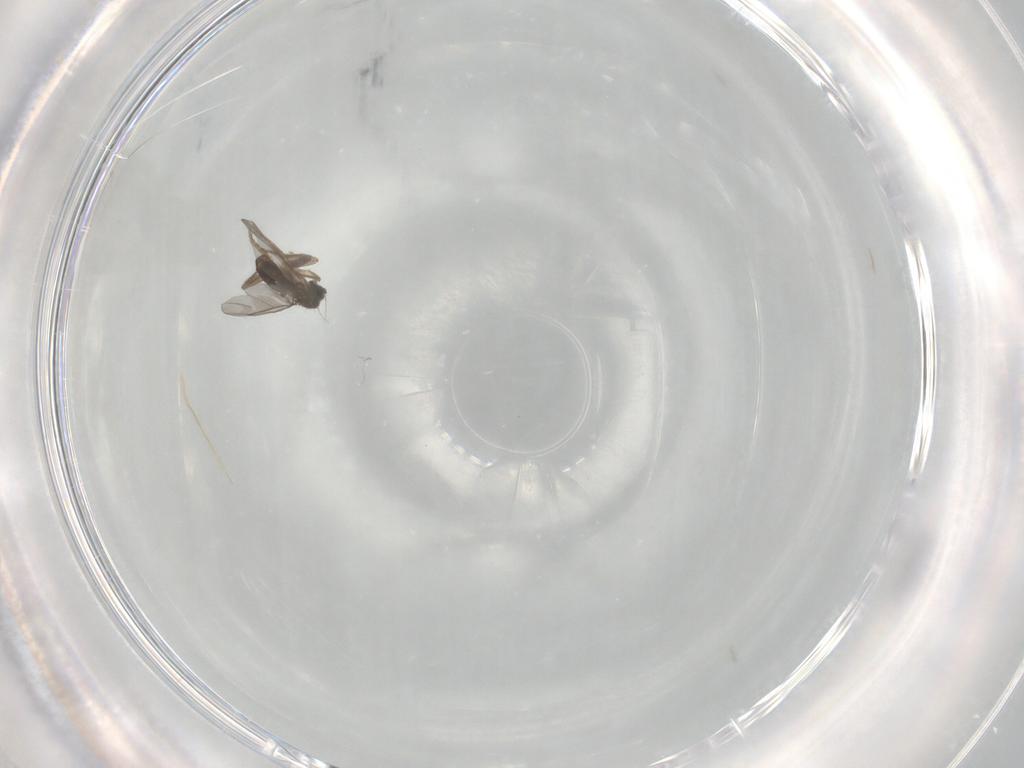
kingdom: Animalia
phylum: Arthropoda
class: Insecta
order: Diptera
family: Phoridae
